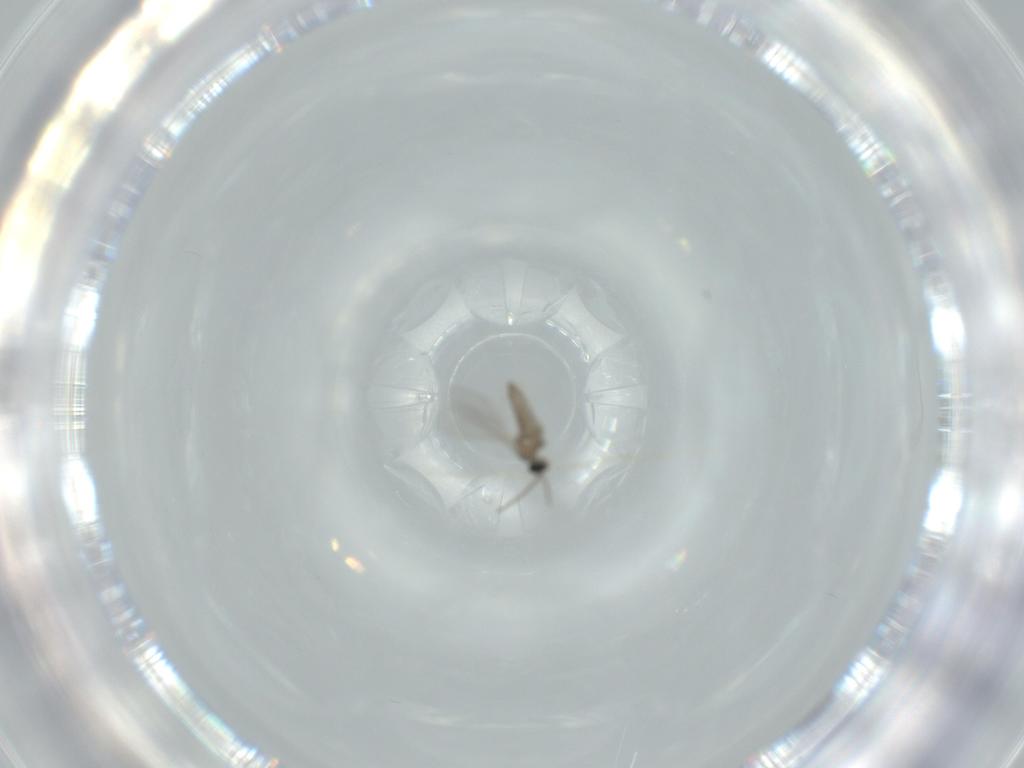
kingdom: Animalia
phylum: Arthropoda
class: Insecta
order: Diptera
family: Cecidomyiidae
